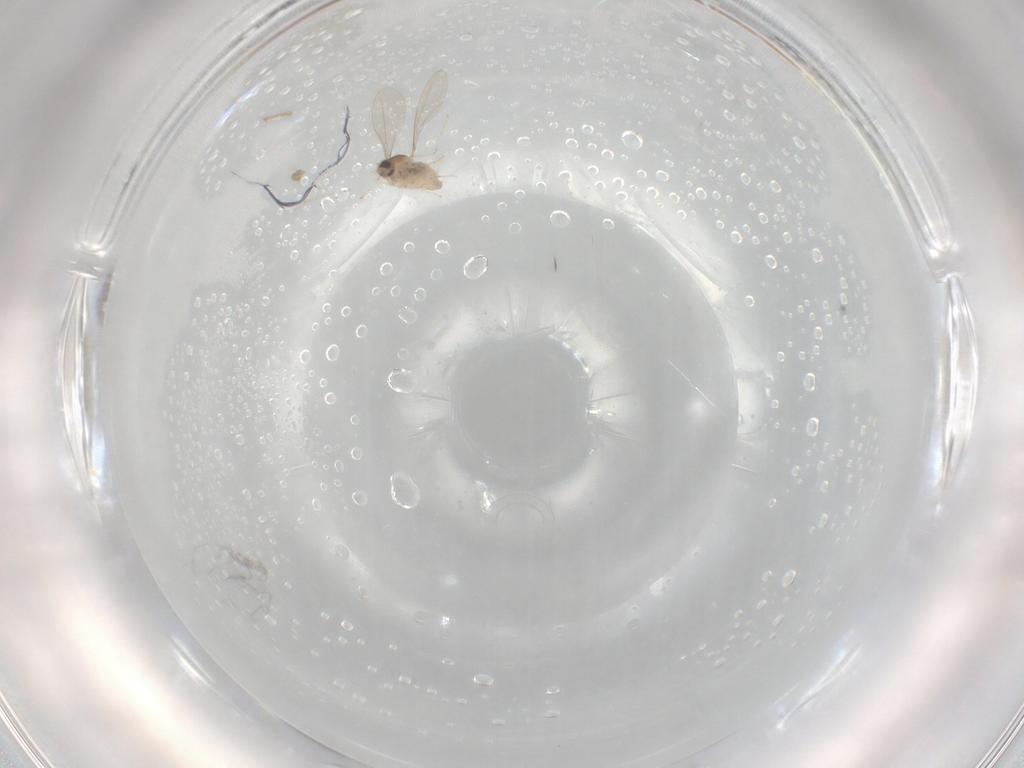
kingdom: Animalia
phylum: Arthropoda
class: Insecta
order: Diptera
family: Cecidomyiidae
